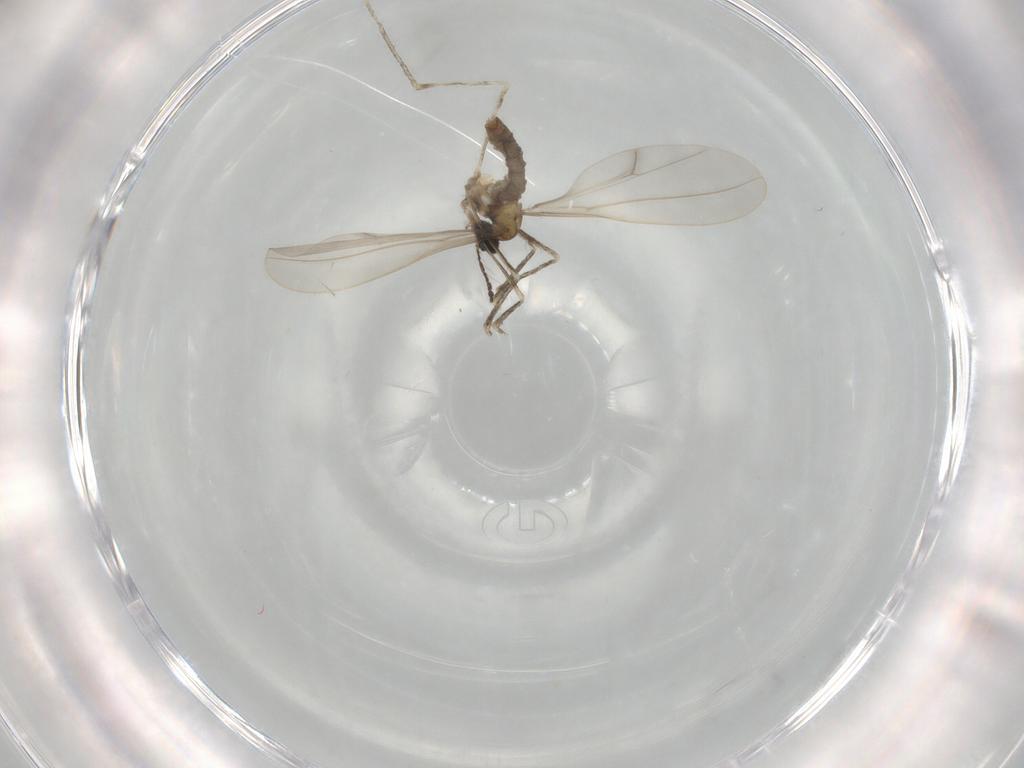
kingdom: Animalia
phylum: Arthropoda
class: Insecta
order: Diptera
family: Cecidomyiidae
